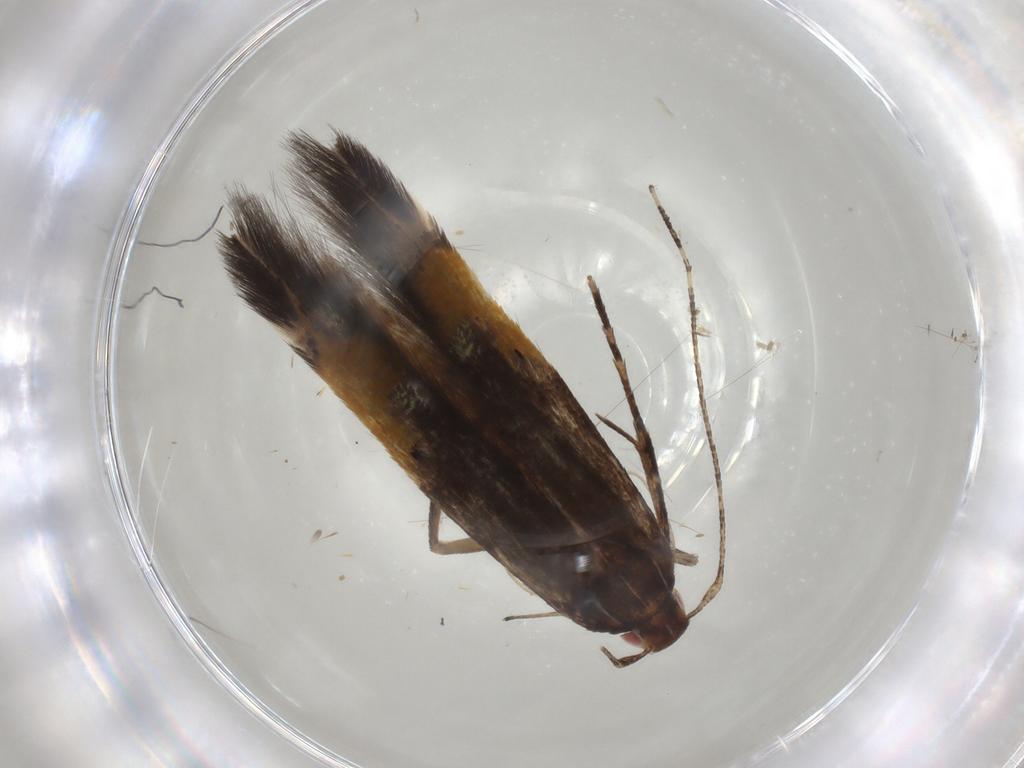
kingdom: Animalia
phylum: Arthropoda
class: Insecta
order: Lepidoptera
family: Cosmopterigidae
